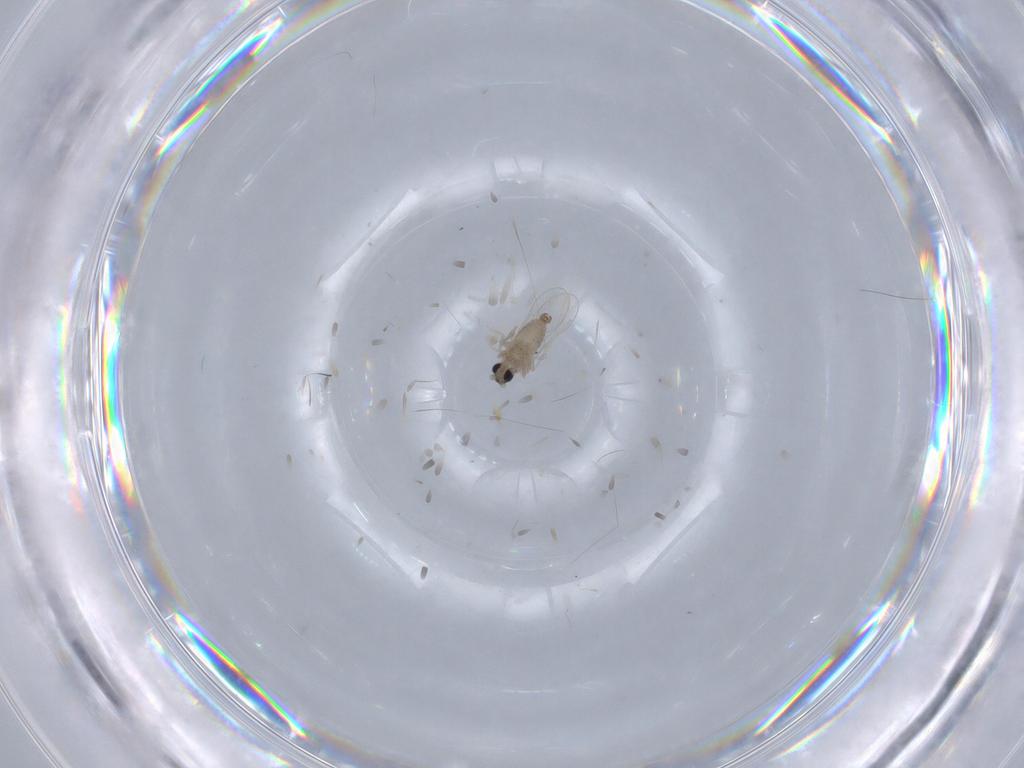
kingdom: Animalia
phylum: Arthropoda
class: Insecta
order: Diptera
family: Cecidomyiidae
